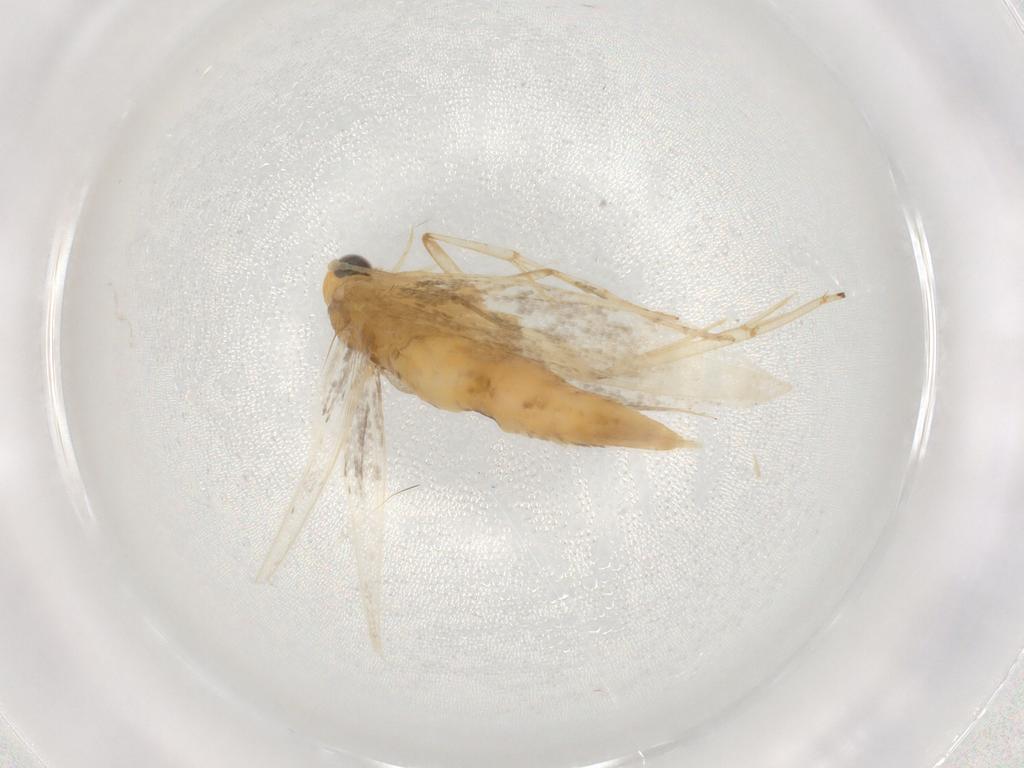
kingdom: Animalia
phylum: Arthropoda
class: Insecta
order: Lepidoptera
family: Argyresthiidae
